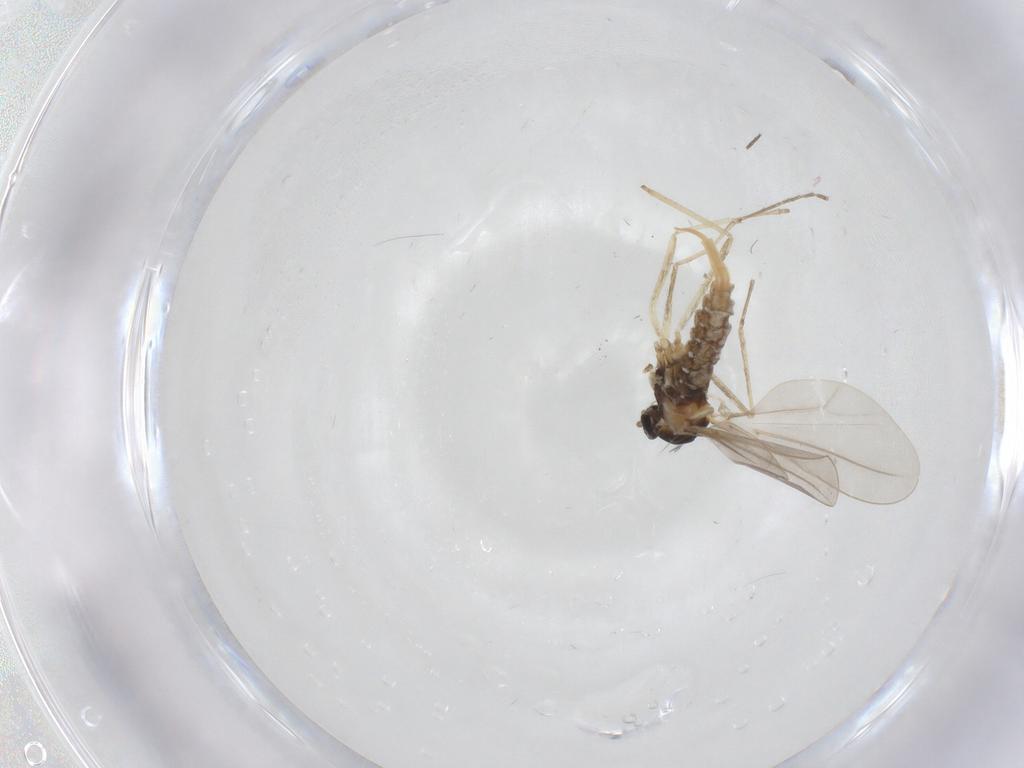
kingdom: Animalia
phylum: Arthropoda
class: Insecta
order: Diptera
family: Cecidomyiidae
